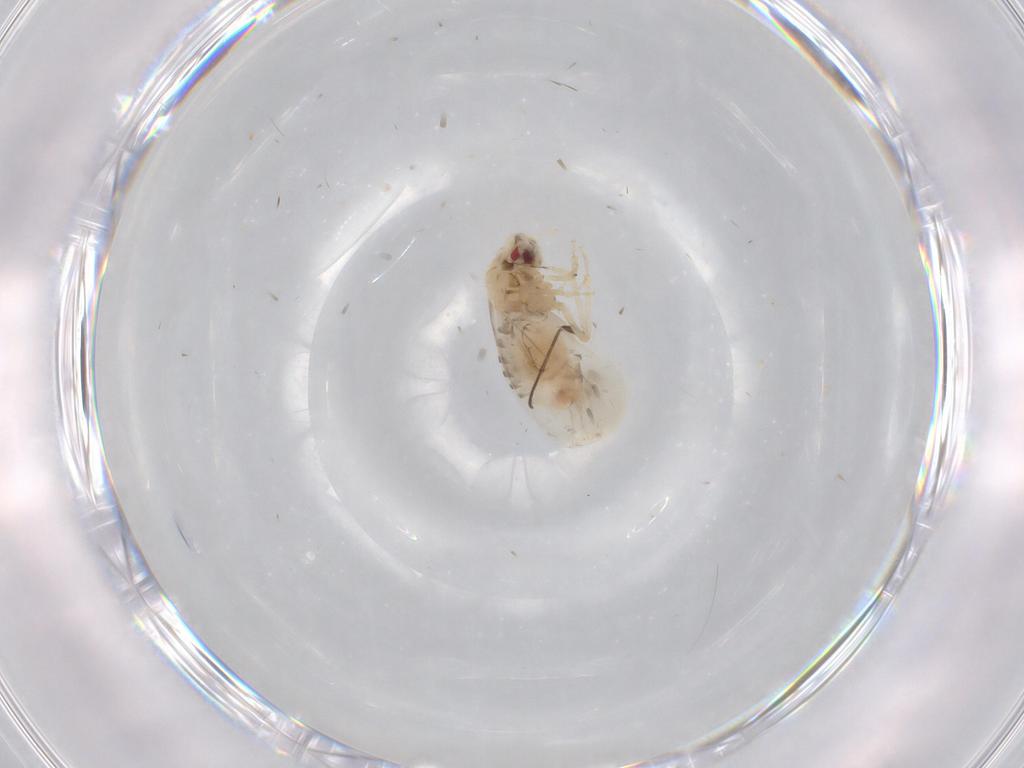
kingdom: Animalia
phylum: Arthropoda
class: Insecta
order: Hemiptera
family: Aleyrodidae
